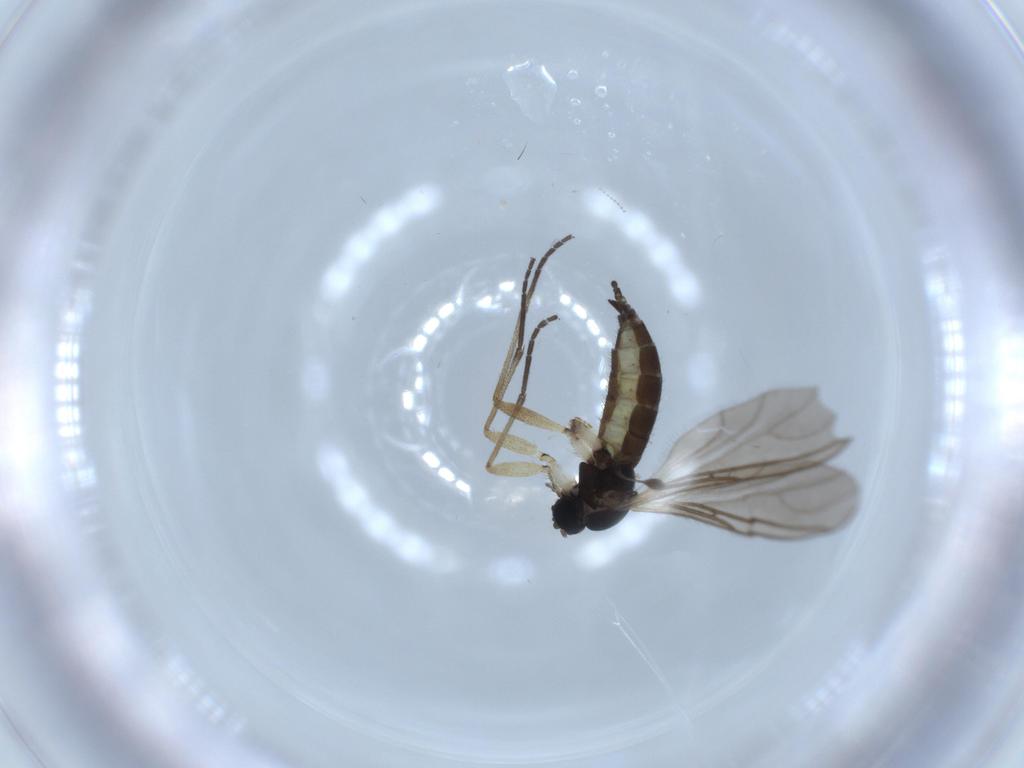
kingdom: Animalia
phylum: Arthropoda
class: Insecta
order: Diptera
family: Sciaridae
